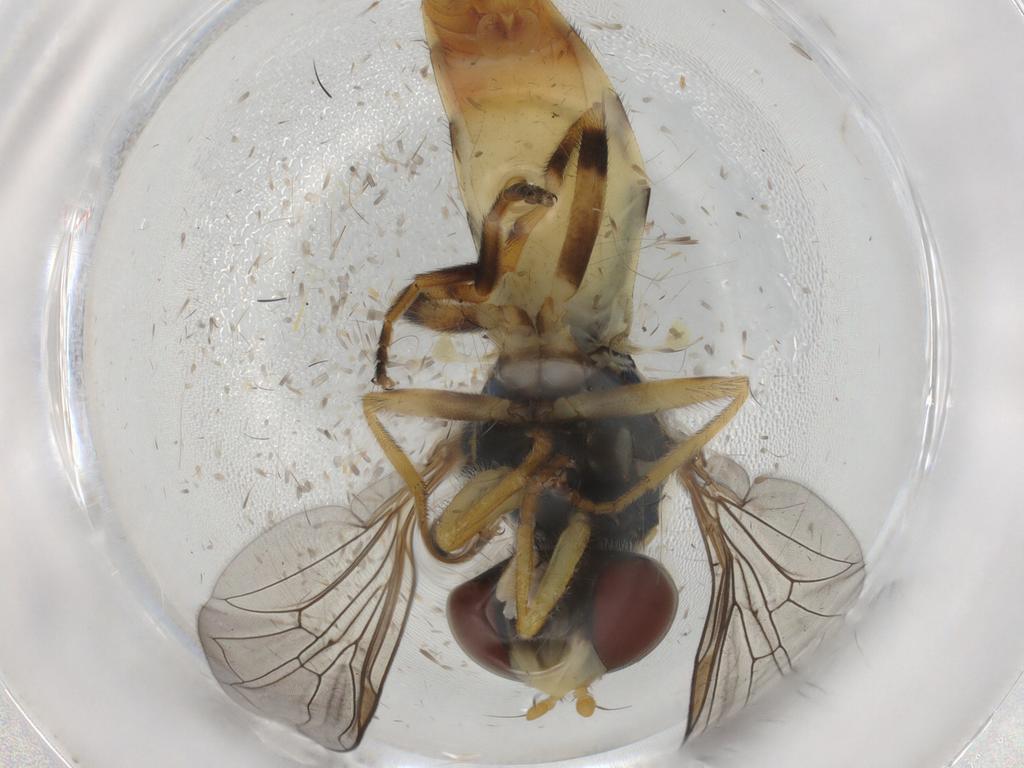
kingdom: Animalia
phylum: Arthropoda
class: Insecta
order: Diptera
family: Syrphidae
